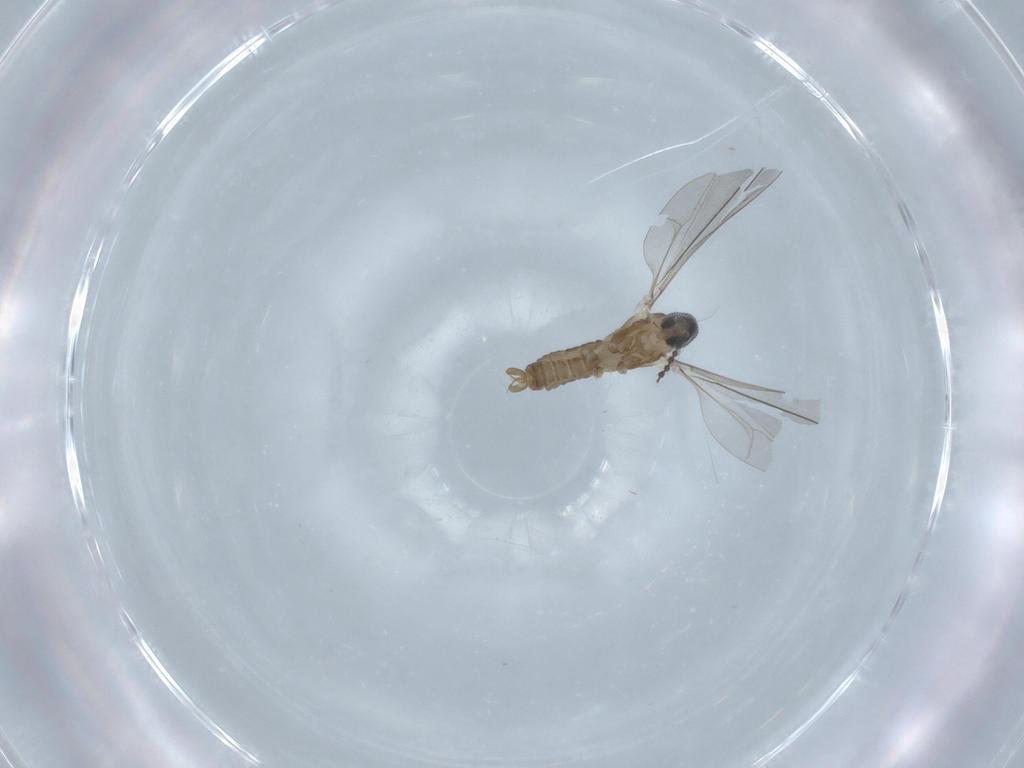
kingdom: Animalia
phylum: Arthropoda
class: Insecta
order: Diptera
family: Cecidomyiidae
